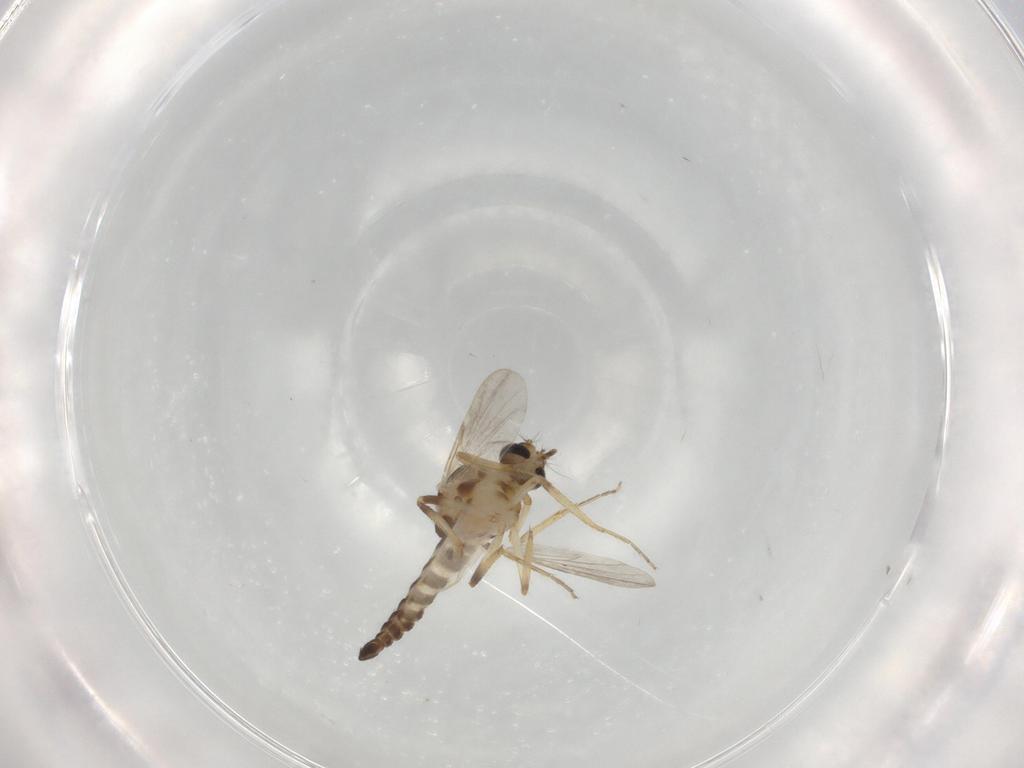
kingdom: Animalia
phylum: Arthropoda
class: Insecta
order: Diptera
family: Ceratopogonidae
